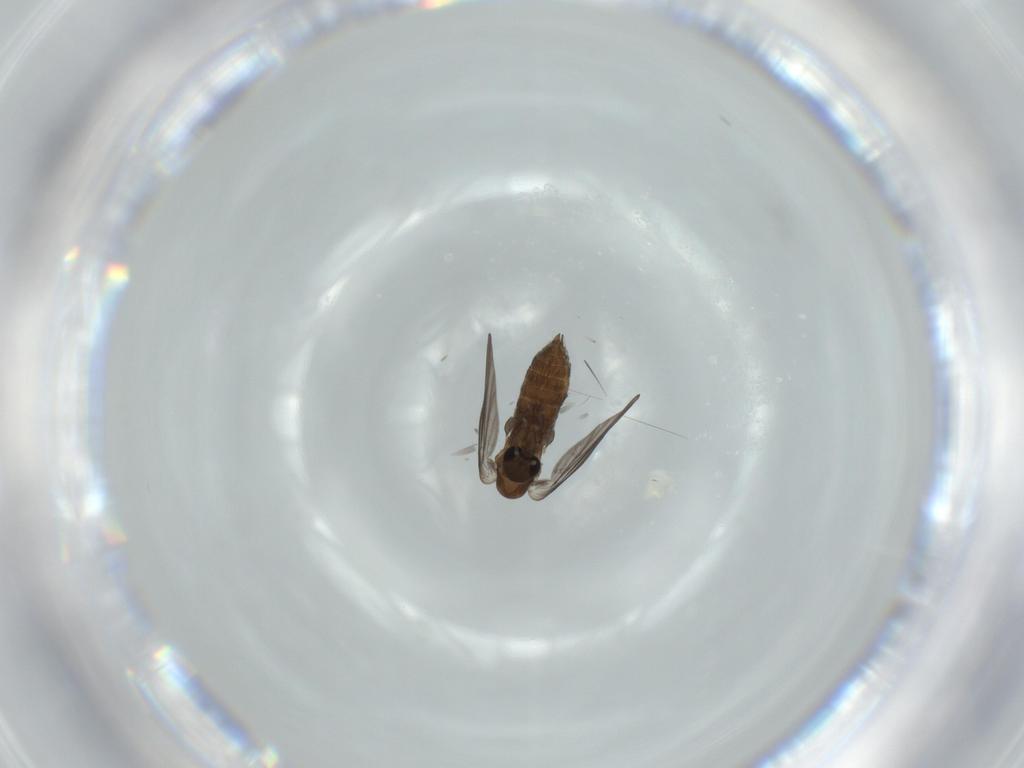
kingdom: Animalia
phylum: Arthropoda
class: Insecta
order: Diptera
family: Psychodidae
